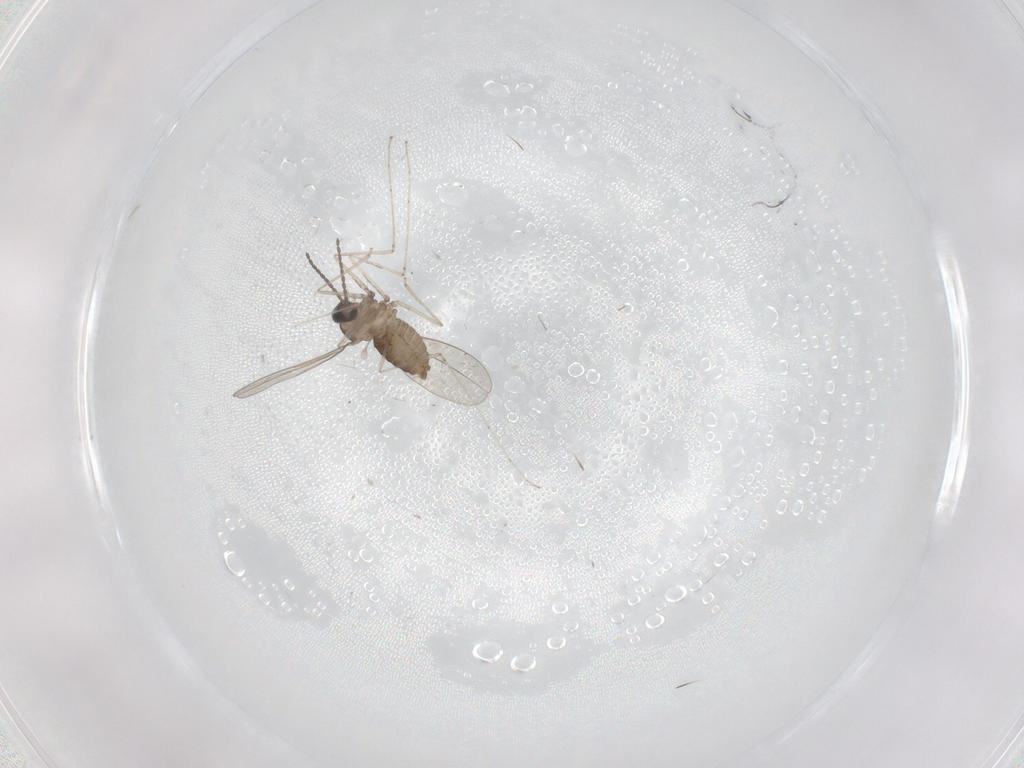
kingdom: Animalia
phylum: Arthropoda
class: Insecta
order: Diptera
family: Cecidomyiidae
